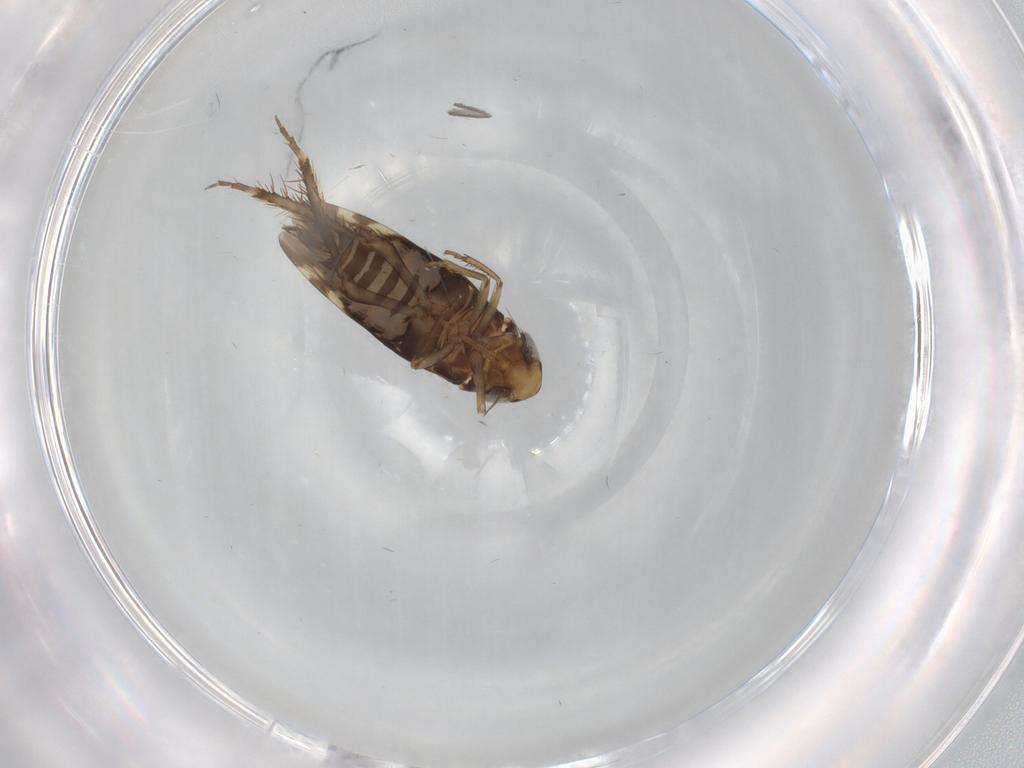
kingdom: Animalia
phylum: Arthropoda
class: Insecta
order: Hemiptera
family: Cicadellidae
